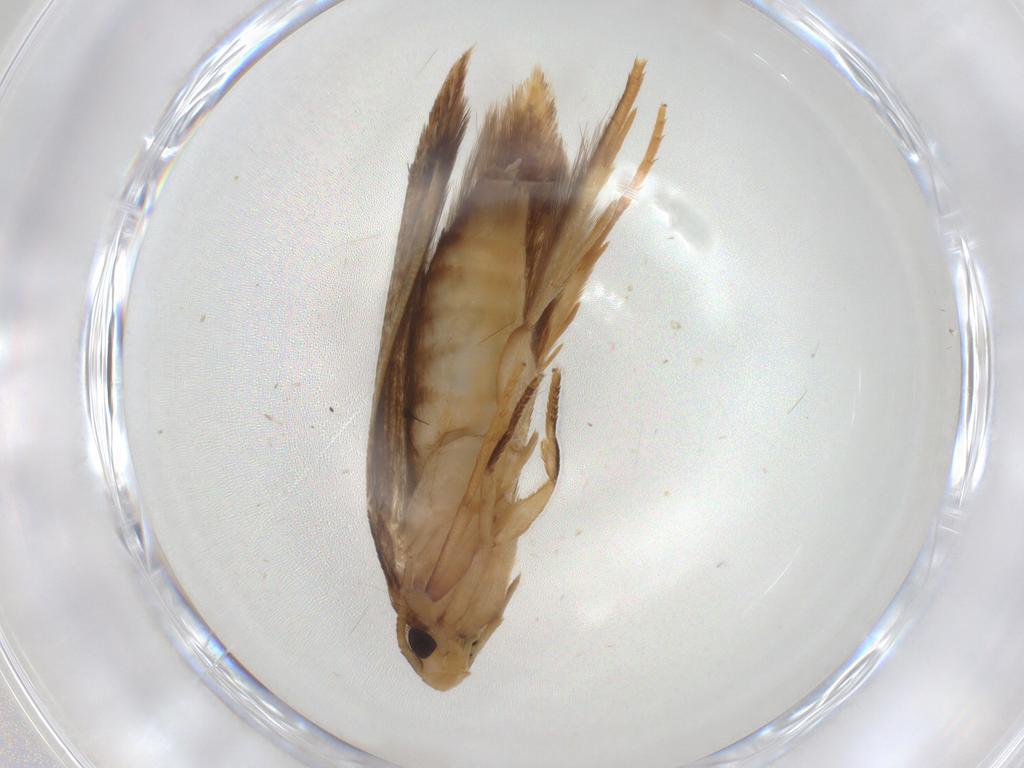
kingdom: Animalia
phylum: Arthropoda
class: Insecta
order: Lepidoptera
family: Tineidae
